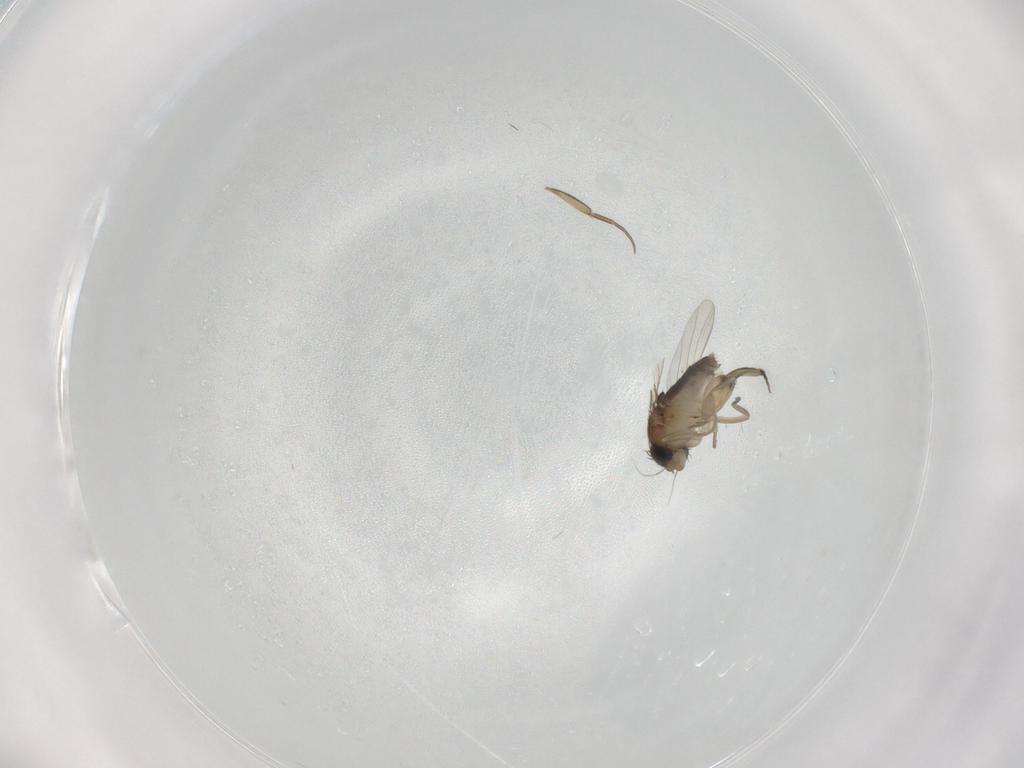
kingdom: Animalia
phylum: Arthropoda
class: Insecta
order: Diptera
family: Phoridae
